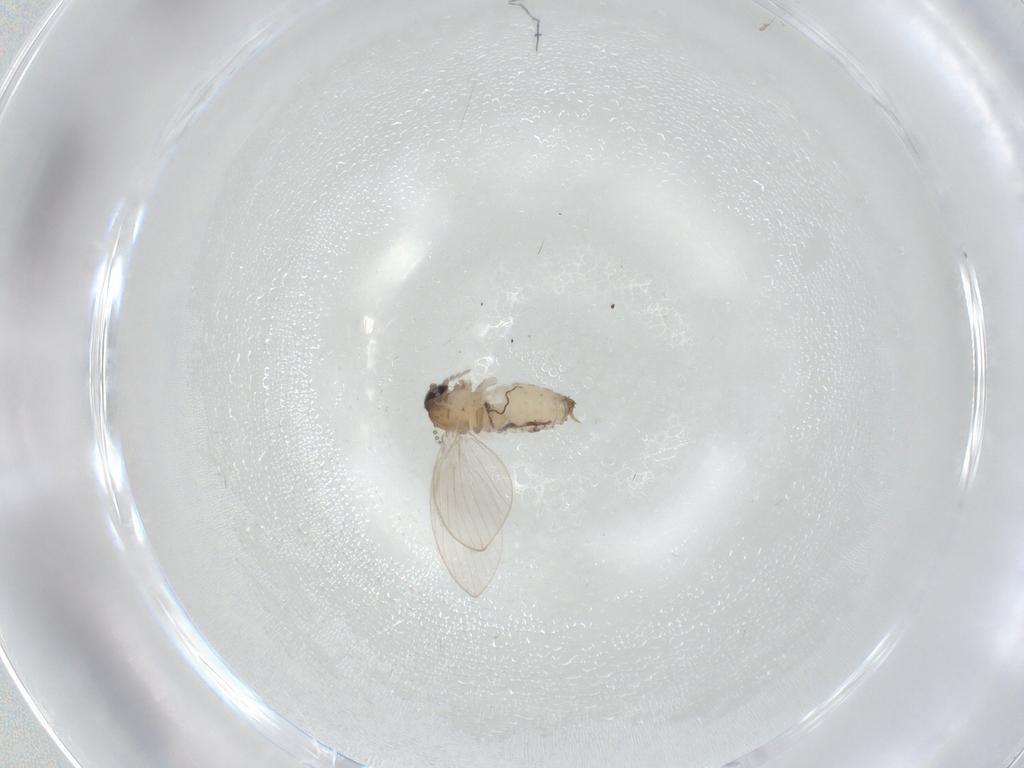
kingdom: Animalia
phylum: Arthropoda
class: Insecta
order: Diptera
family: Psychodidae
